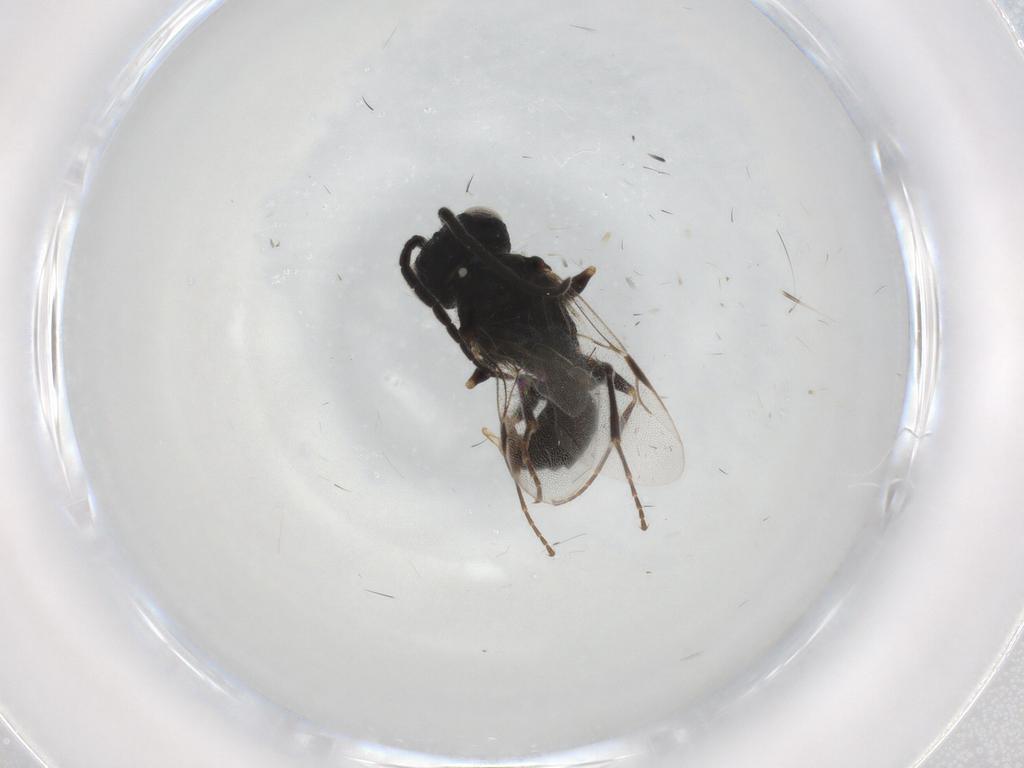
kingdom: Animalia
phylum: Arthropoda
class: Insecta
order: Hymenoptera
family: Dryinidae
